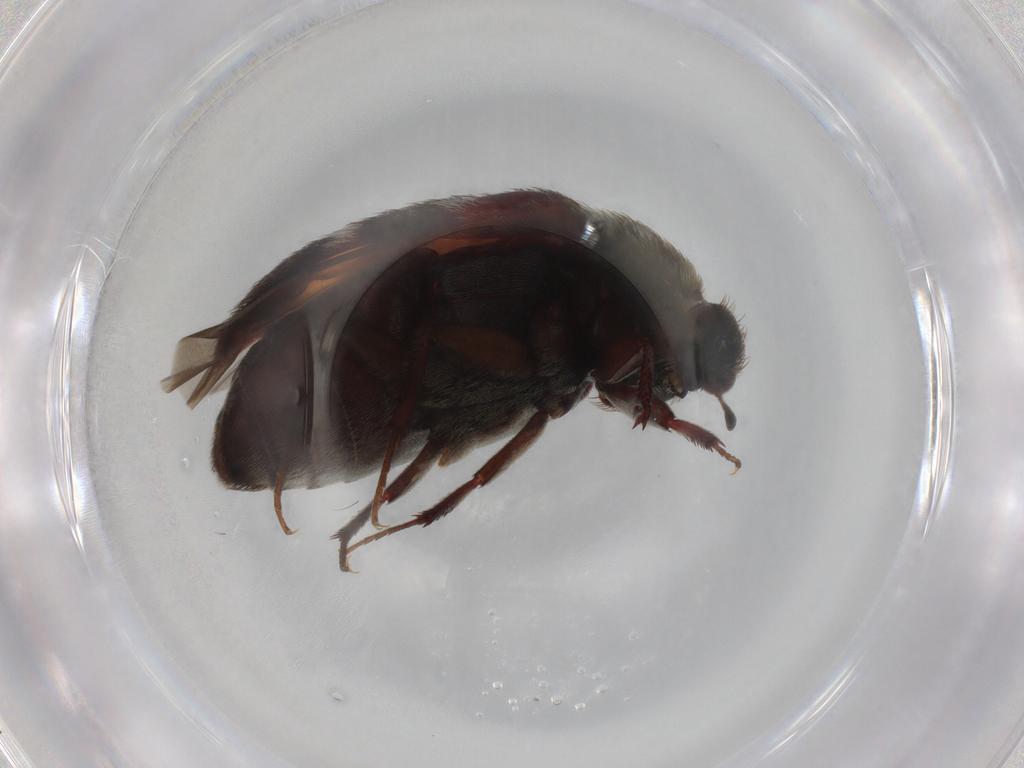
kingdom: Animalia
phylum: Arthropoda
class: Insecta
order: Coleoptera
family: Dermestidae
